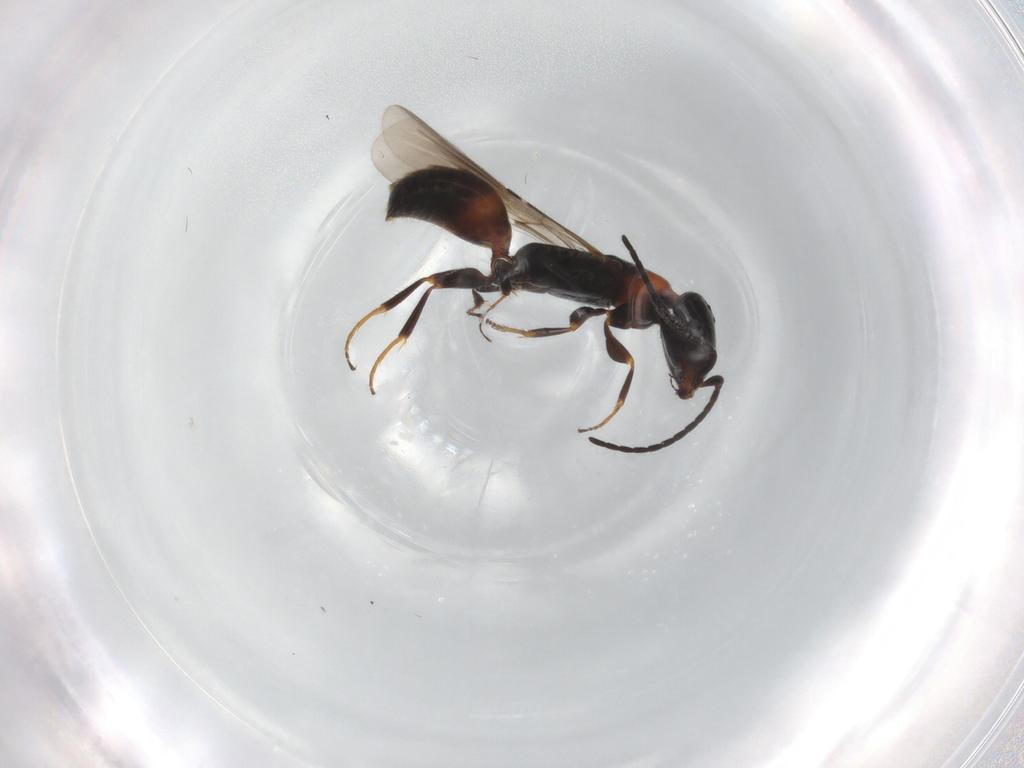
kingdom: Animalia
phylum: Arthropoda
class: Insecta
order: Hymenoptera
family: Bethylidae
